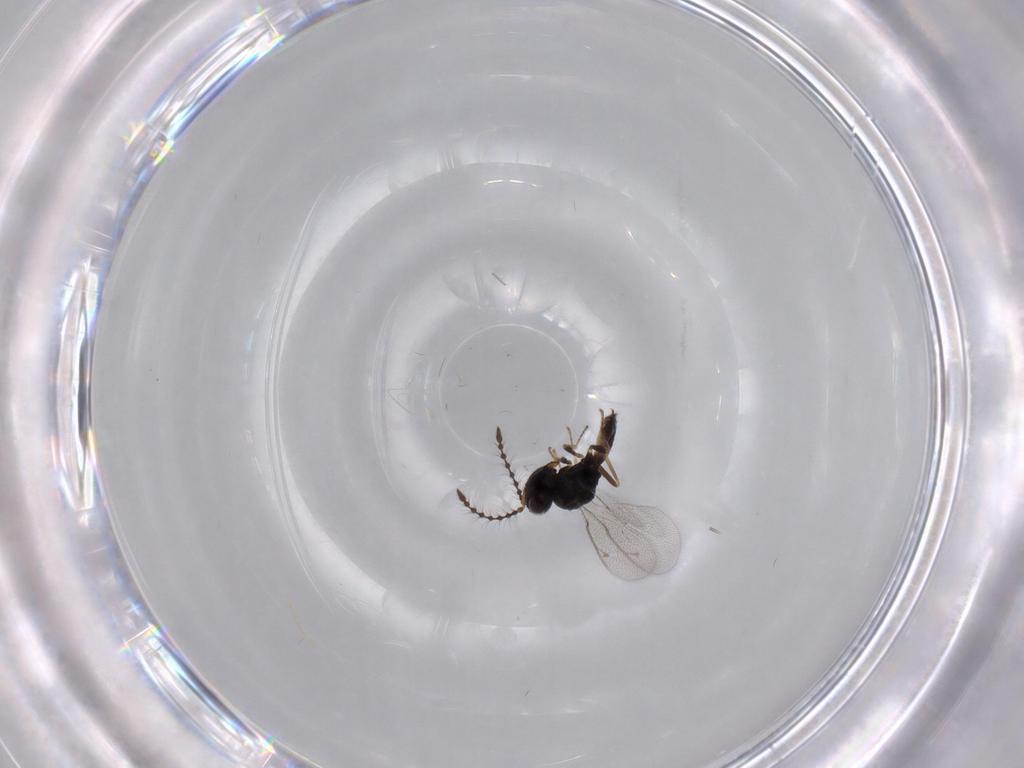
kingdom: Animalia
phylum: Arthropoda
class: Insecta
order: Hymenoptera
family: Pteromalidae
